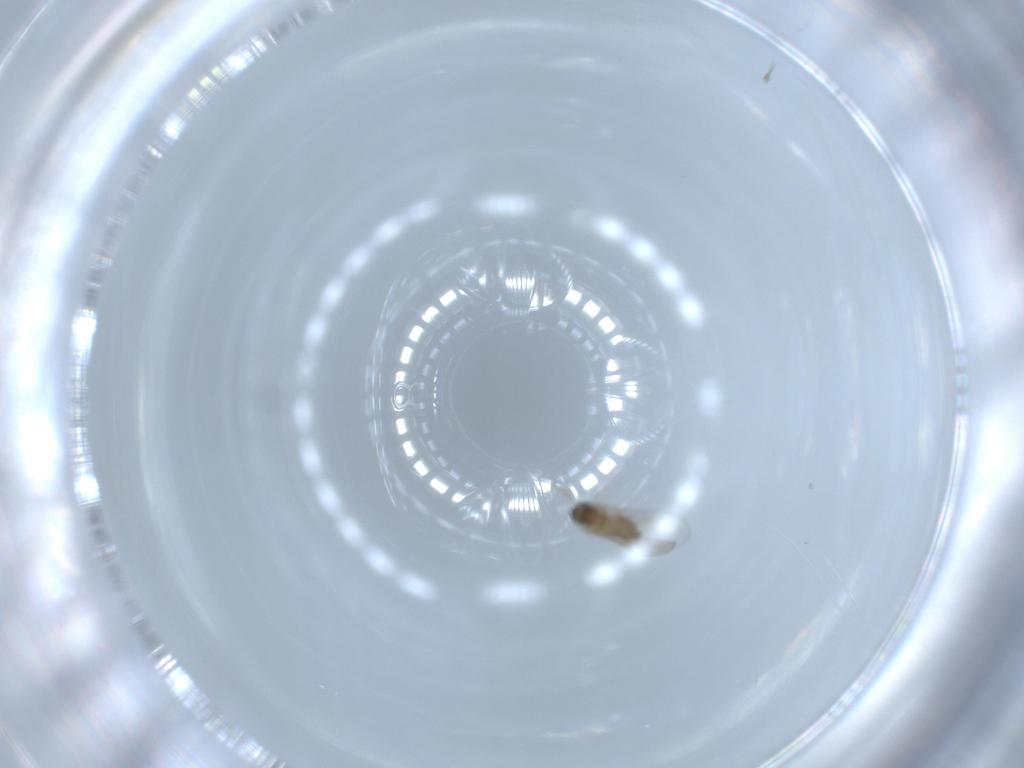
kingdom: Animalia
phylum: Arthropoda
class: Insecta
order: Diptera
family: Cecidomyiidae
